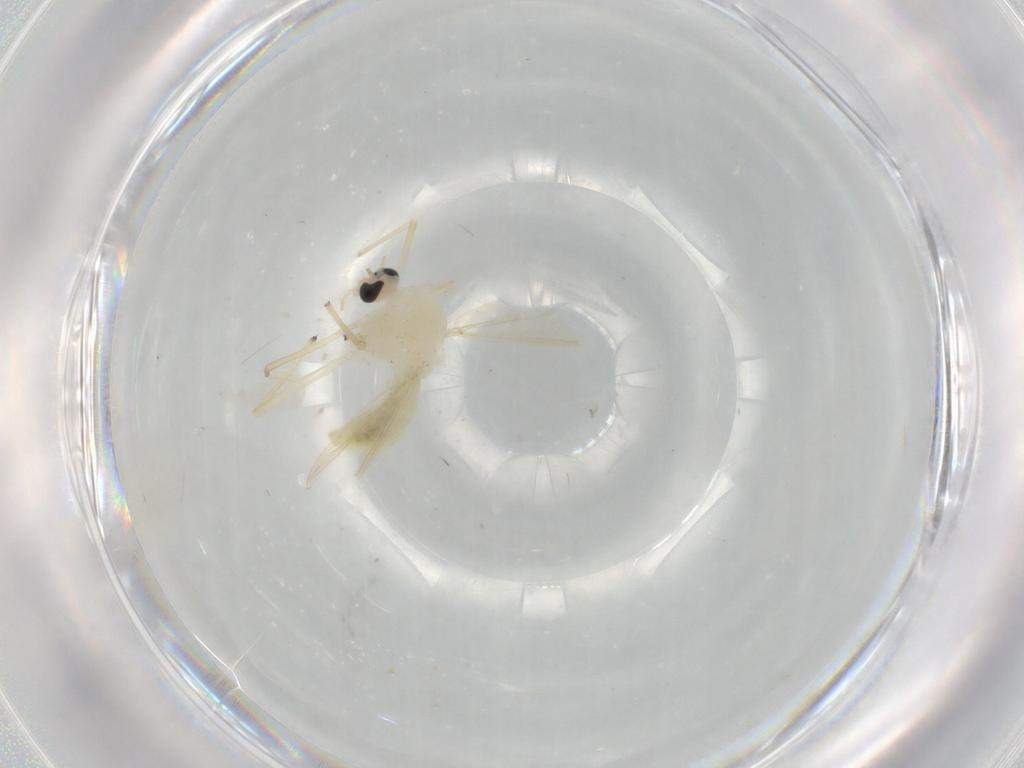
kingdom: Animalia
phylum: Arthropoda
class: Insecta
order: Diptera
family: Chironomidae
